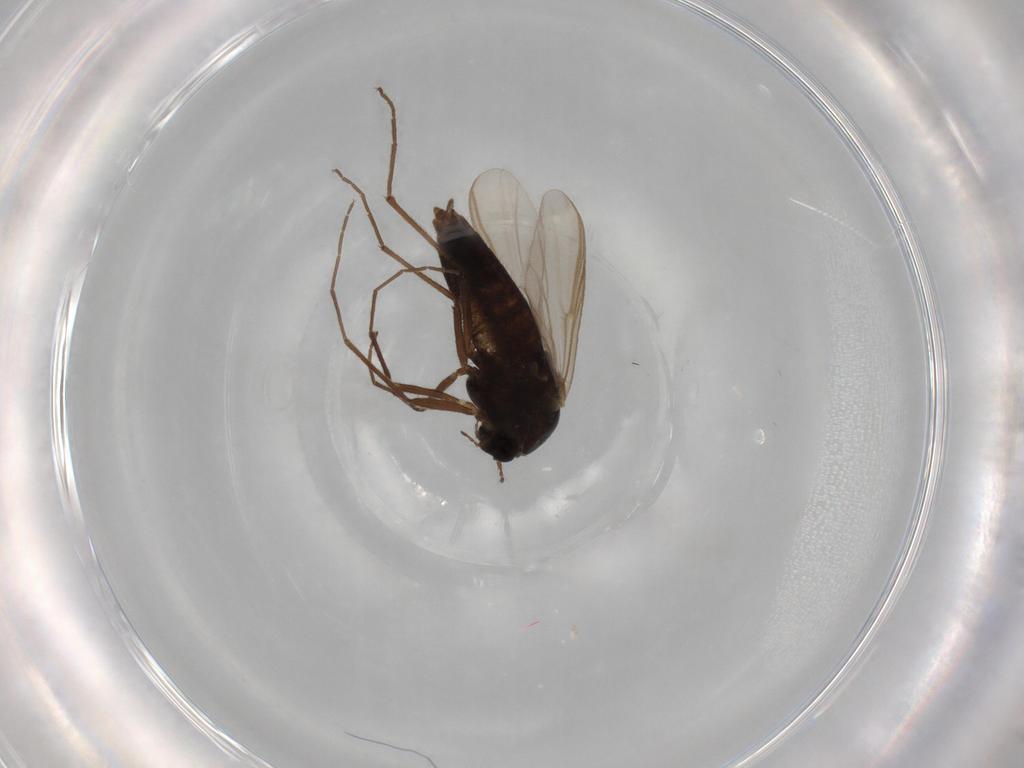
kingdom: Animalia
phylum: Arthropoda
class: Insecta
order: Diptera
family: Chironomidae
